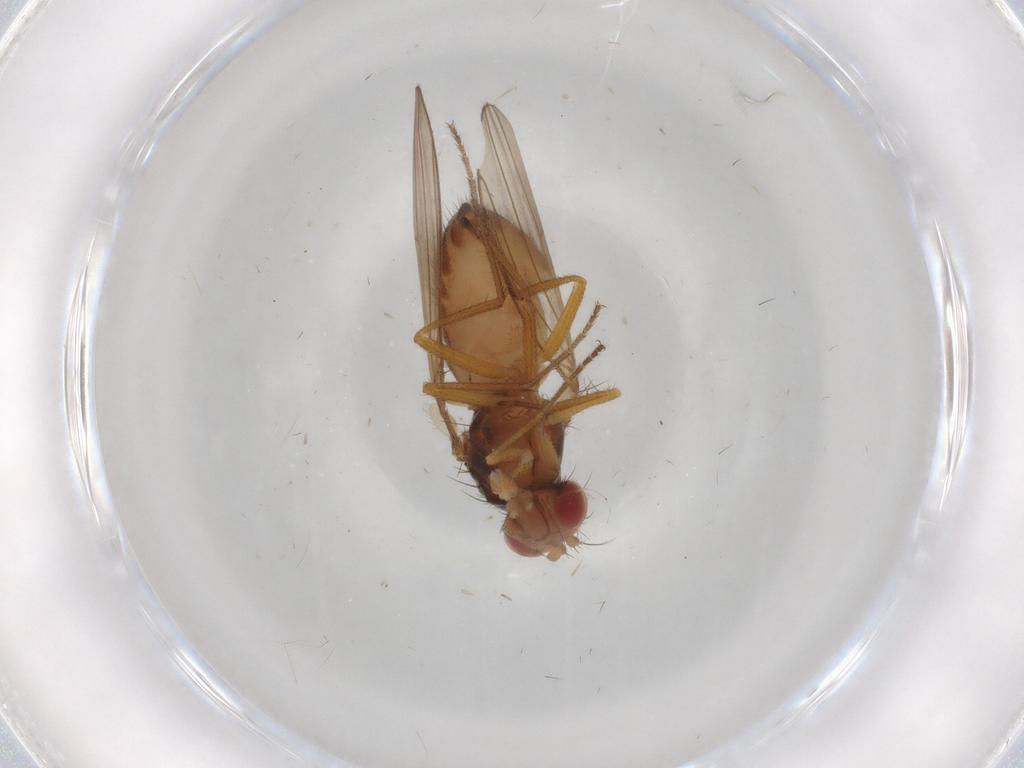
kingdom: Animalia
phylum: Arthropoda
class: Insecta
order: Diptera
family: Drosophilidae
